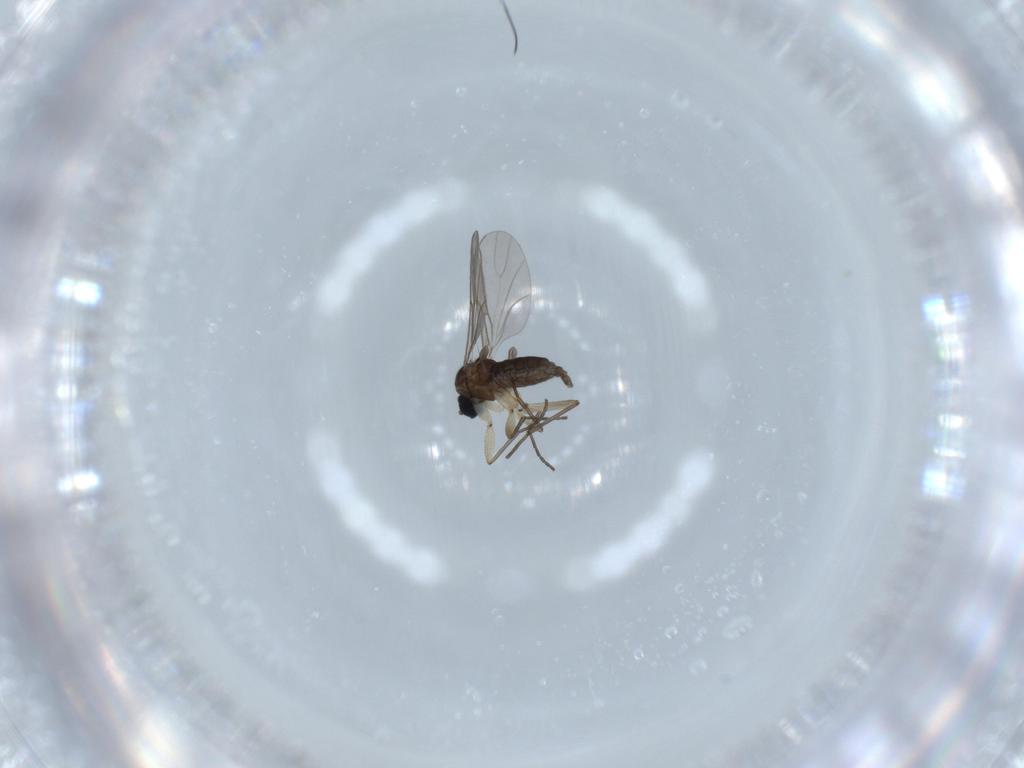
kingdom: Animalia
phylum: Arthropoda
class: Insecta
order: Diptera
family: Sciaridae
